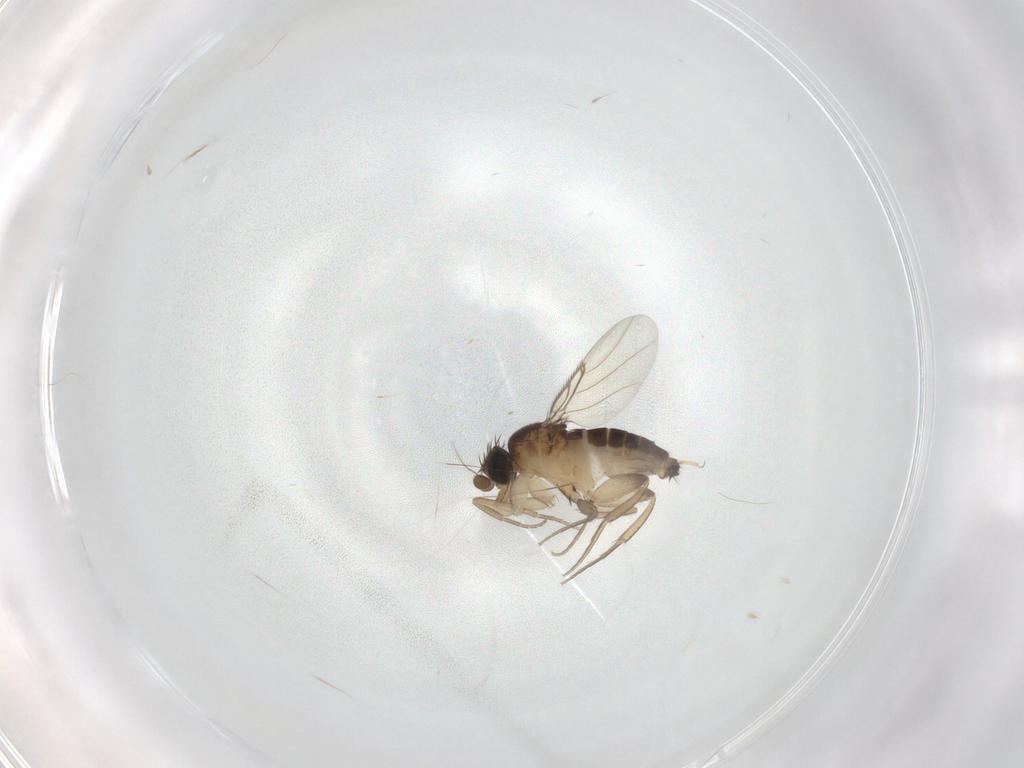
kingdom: Animalia
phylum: Arthropoda
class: Insecta
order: Diptera
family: Phoridae
